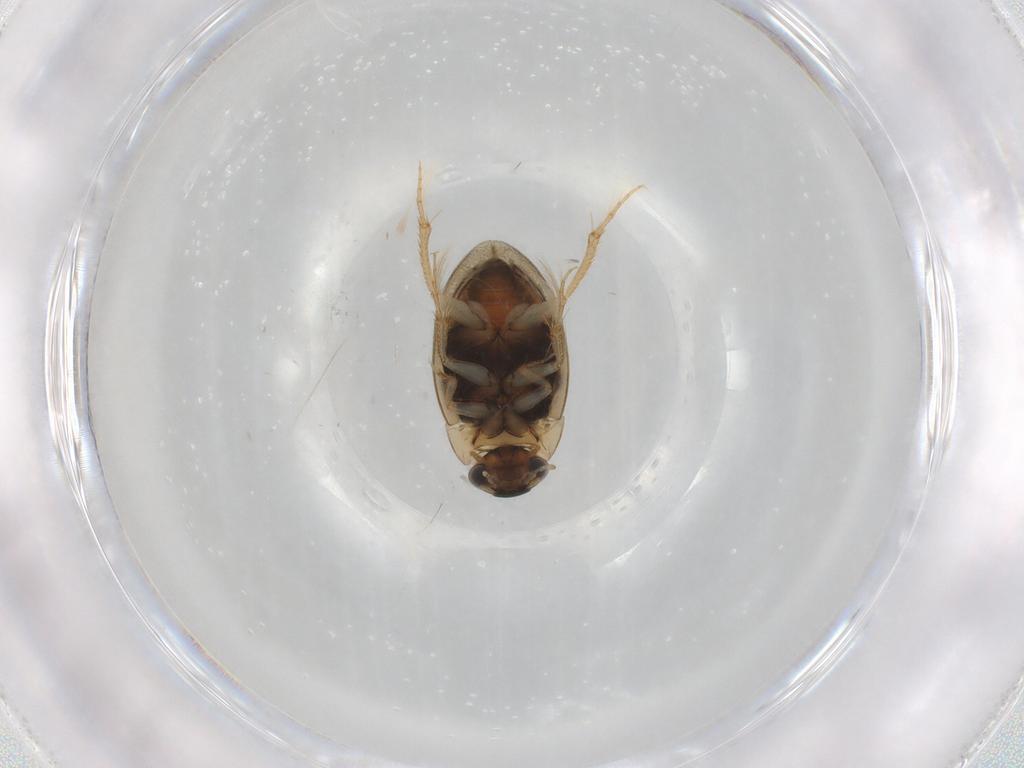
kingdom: Animalia
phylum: Arthropoda
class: Insecta
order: Coleoptera
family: Hydrophilidae
